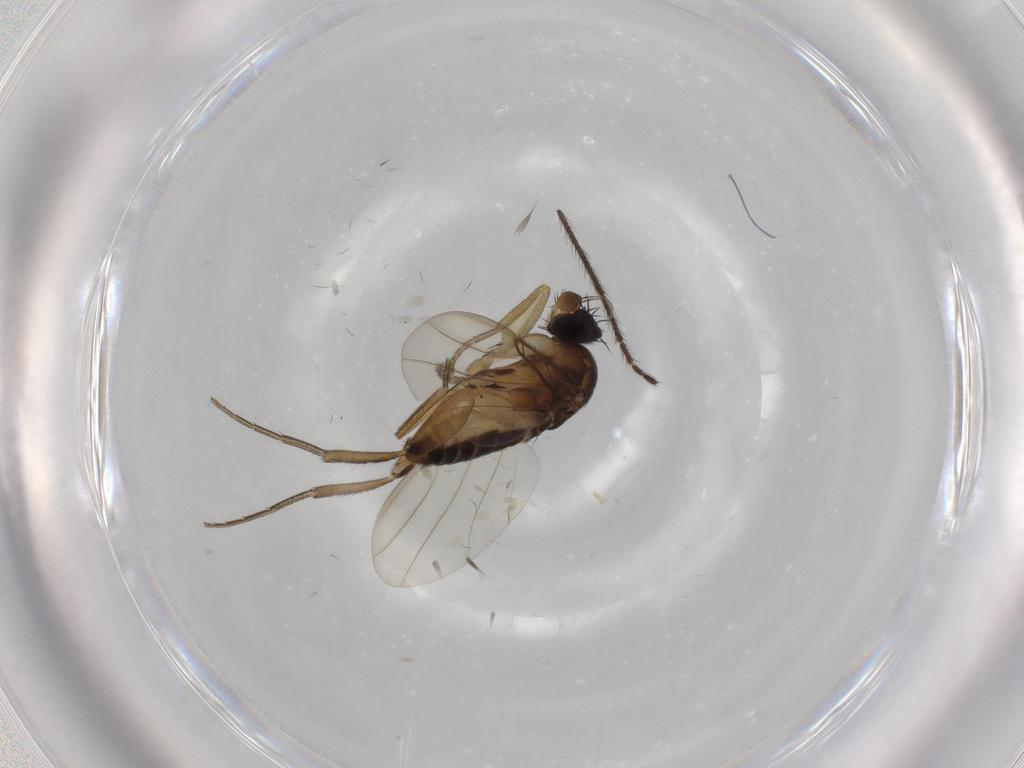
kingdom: Animalia
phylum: Arthropoda
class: Insecta
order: Diptera
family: Phoridae
